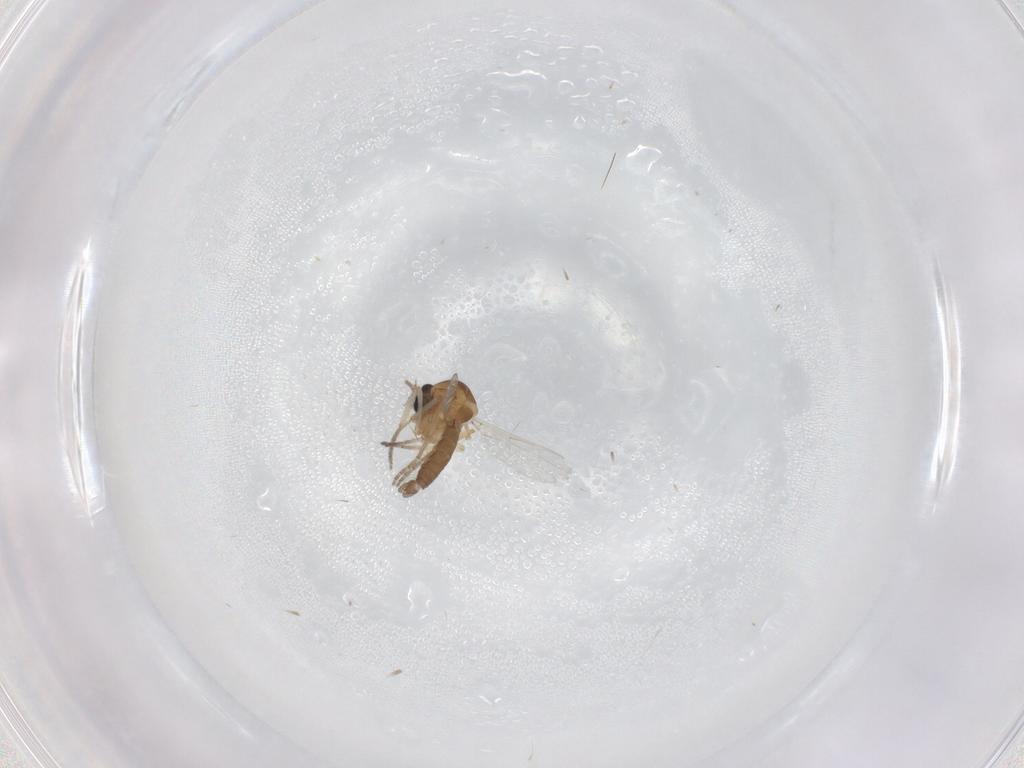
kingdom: Animalia
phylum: Arthropoda
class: Insecta
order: Diptera
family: Ceratopogonidae
